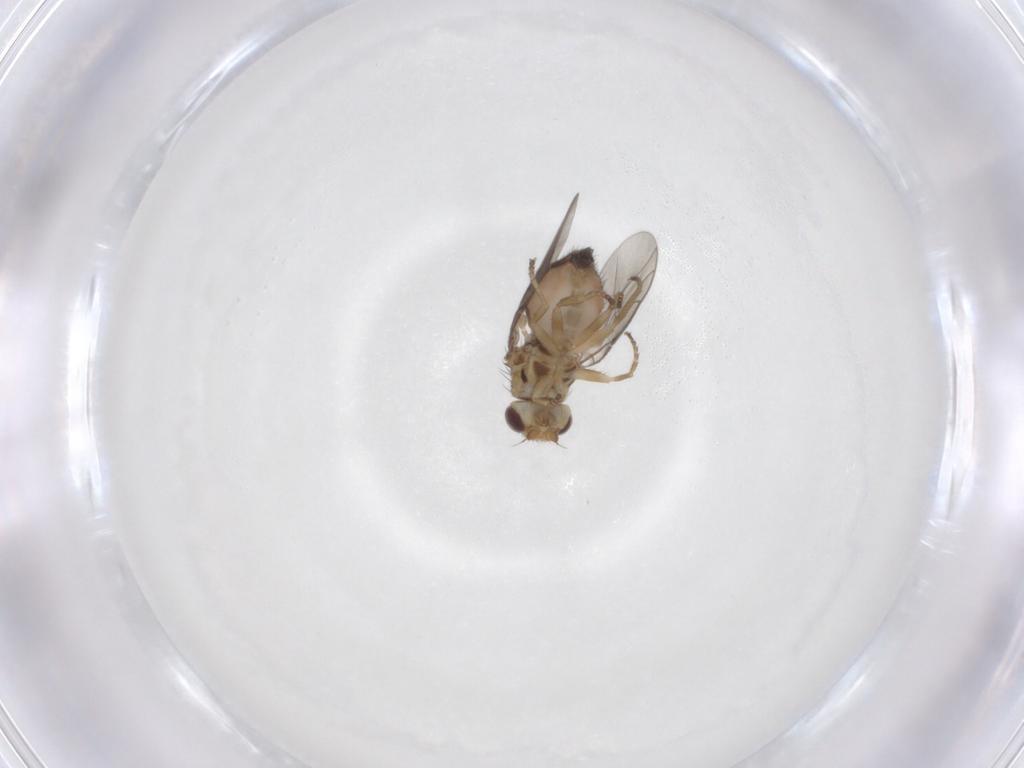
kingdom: Animalia
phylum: Arthropoda
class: Insecta
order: Diptera
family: Chloropidae
